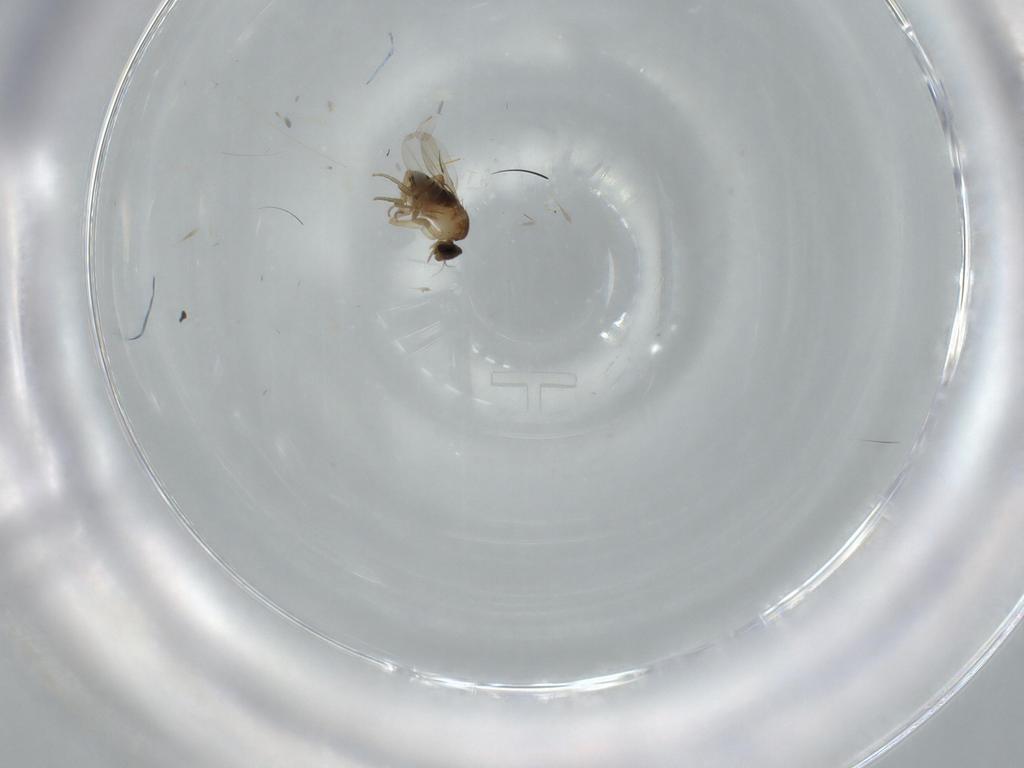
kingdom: Animalia
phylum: Arthropoda
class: Insecta
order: Diptera
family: Phoridae
